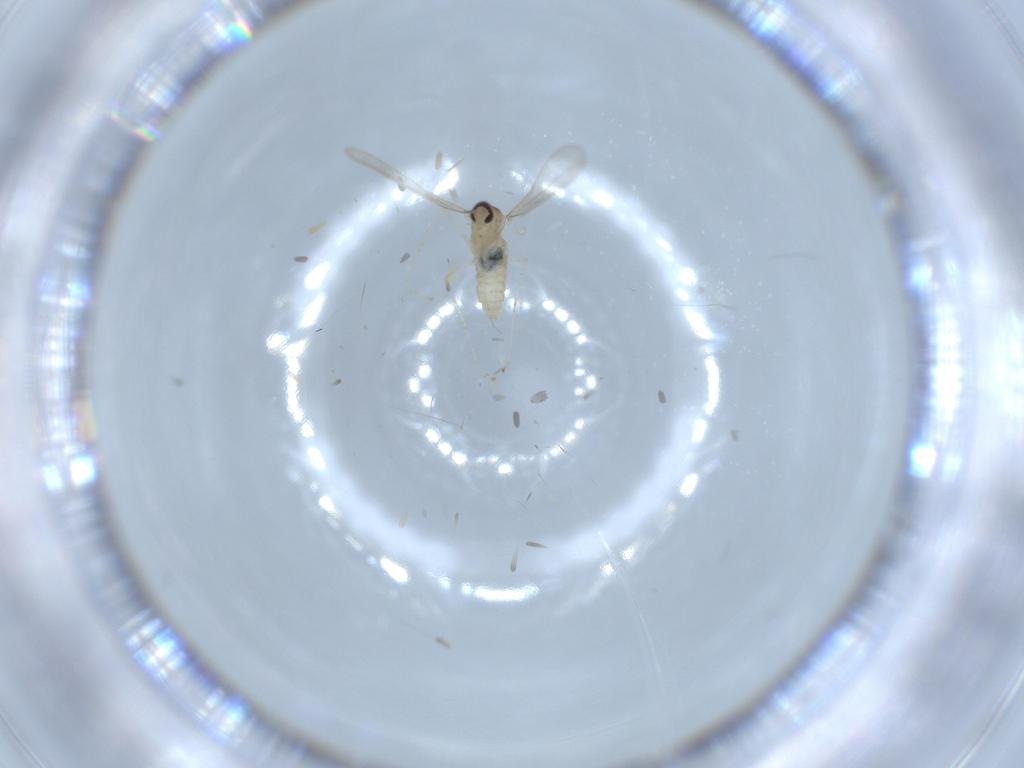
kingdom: Animalia
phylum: Arthropoda
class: Insecta
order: Diptera
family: Cecidomyiidae
